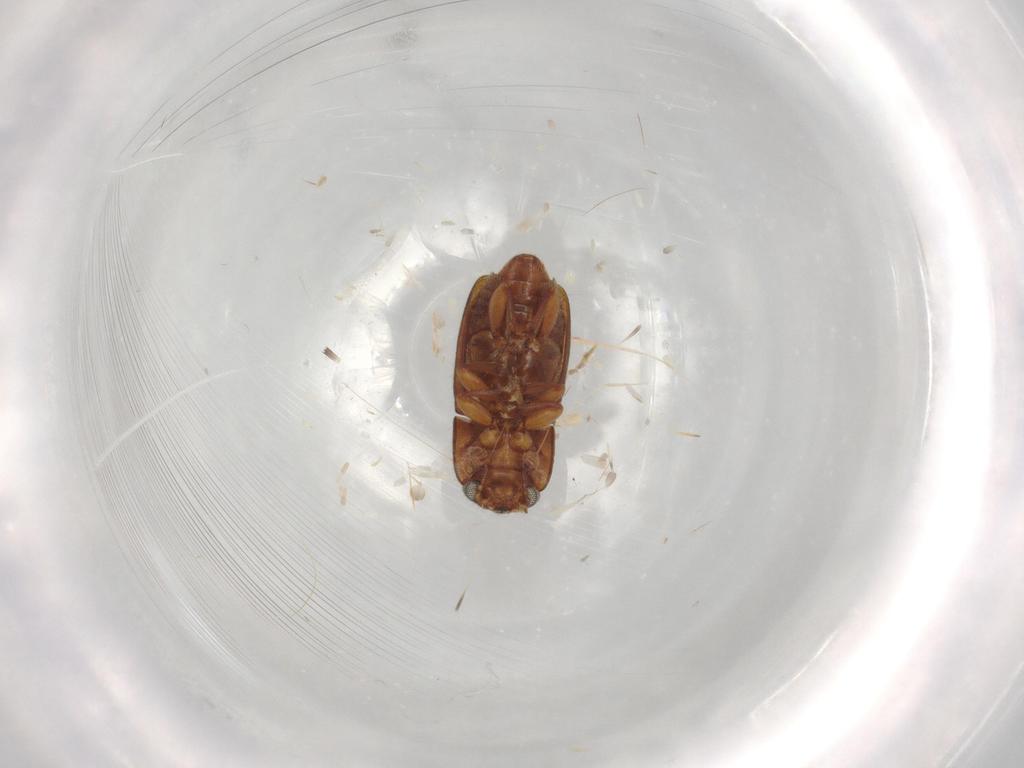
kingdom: Animalia
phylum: Arthropoda
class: Insecta
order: Coleoptera
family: Nitidulidae
